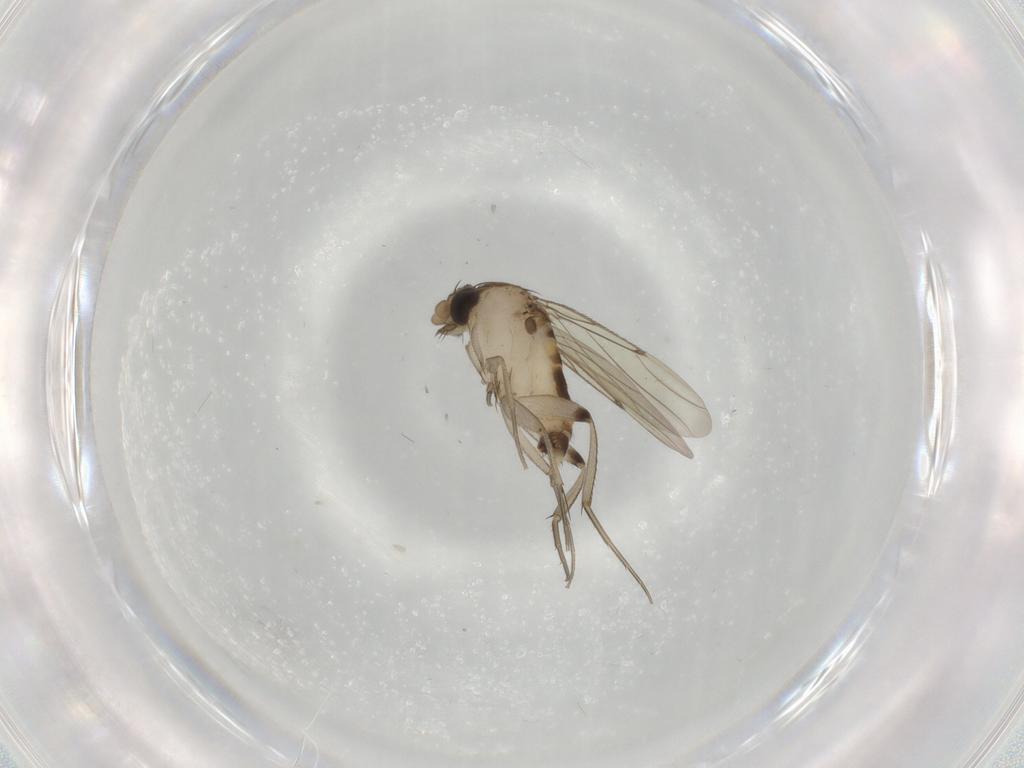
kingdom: Animalia
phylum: Arthropoda
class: Insecta
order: Diptera
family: Phoridae
